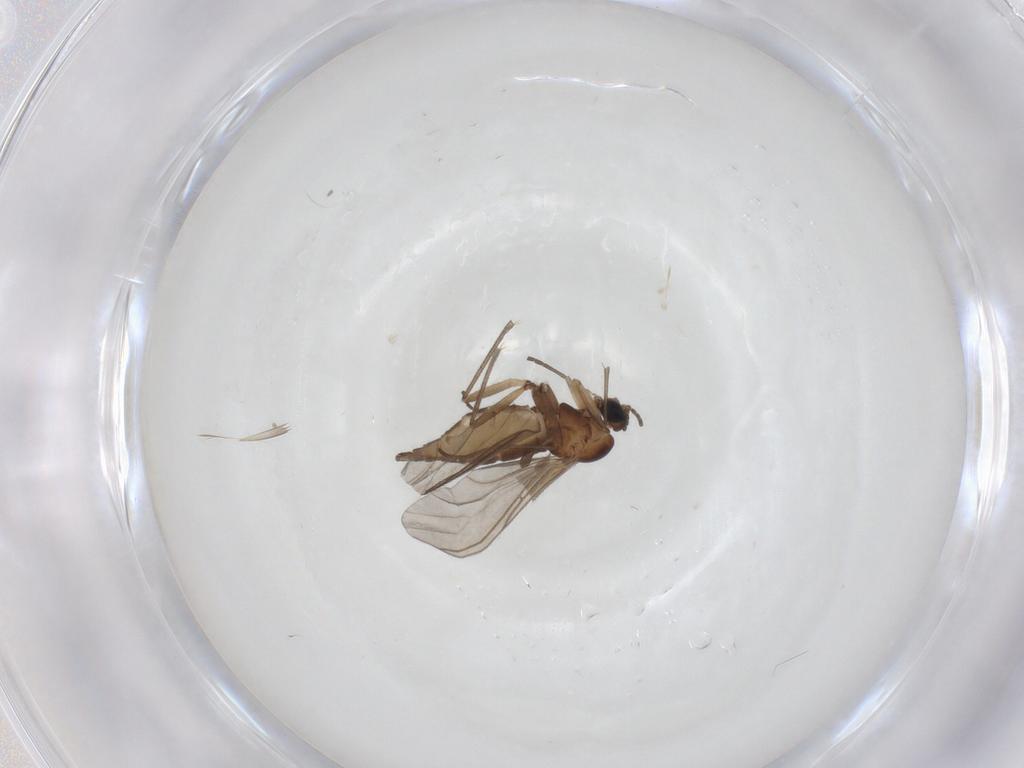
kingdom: Animalia
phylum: Arthropoda
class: Insecta
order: Diptera
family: Sciaridae
